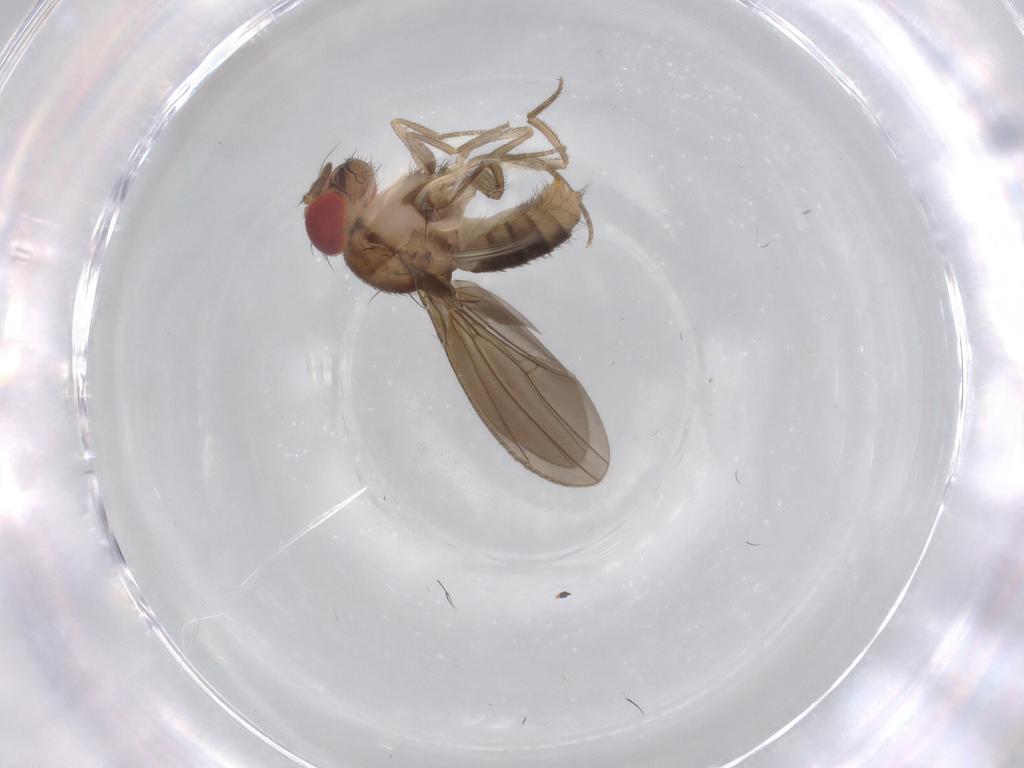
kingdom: Animalia
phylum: Arthropoda
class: Insecta
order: Diptera
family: Drosophilidae
